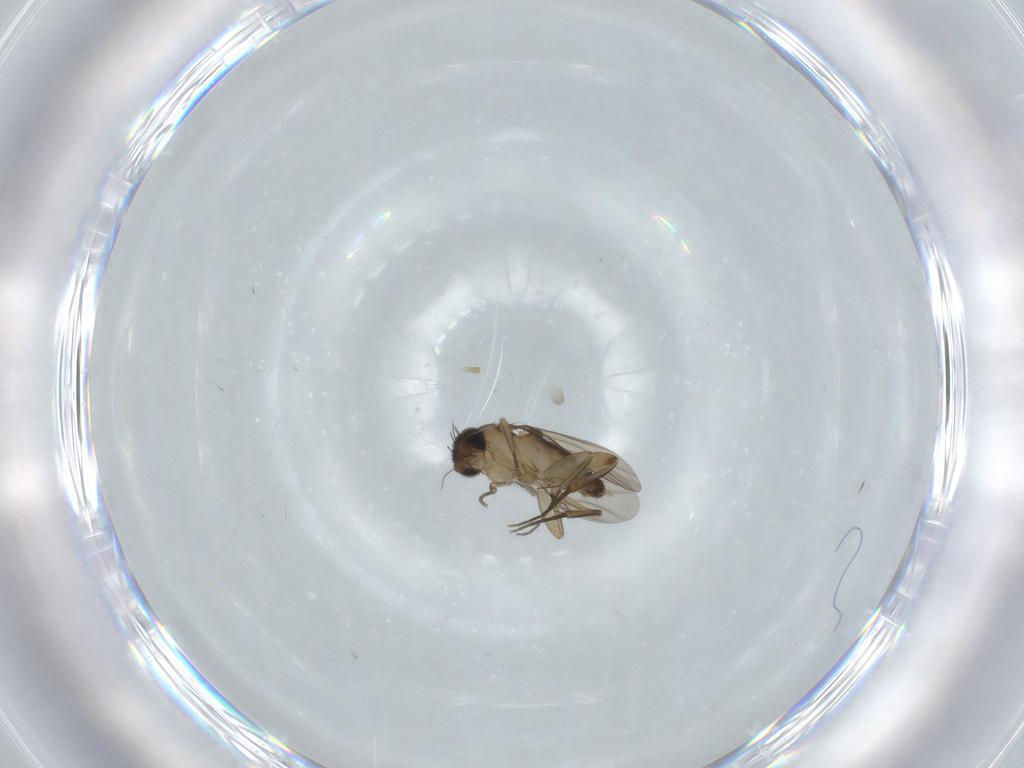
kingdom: Animalia
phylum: Arthropoda
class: Insecta
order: Diptera
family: Phoridae
